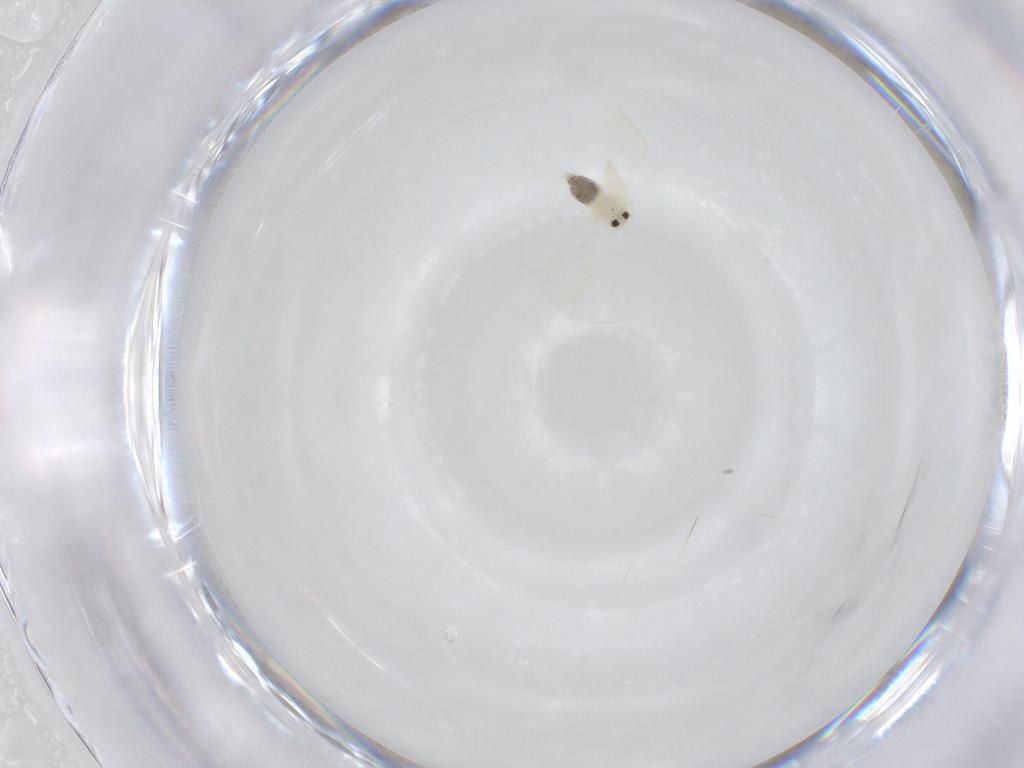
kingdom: Animalia
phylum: Arthropoda
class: Insecta
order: Hemiptera
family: Aleyrodidae
